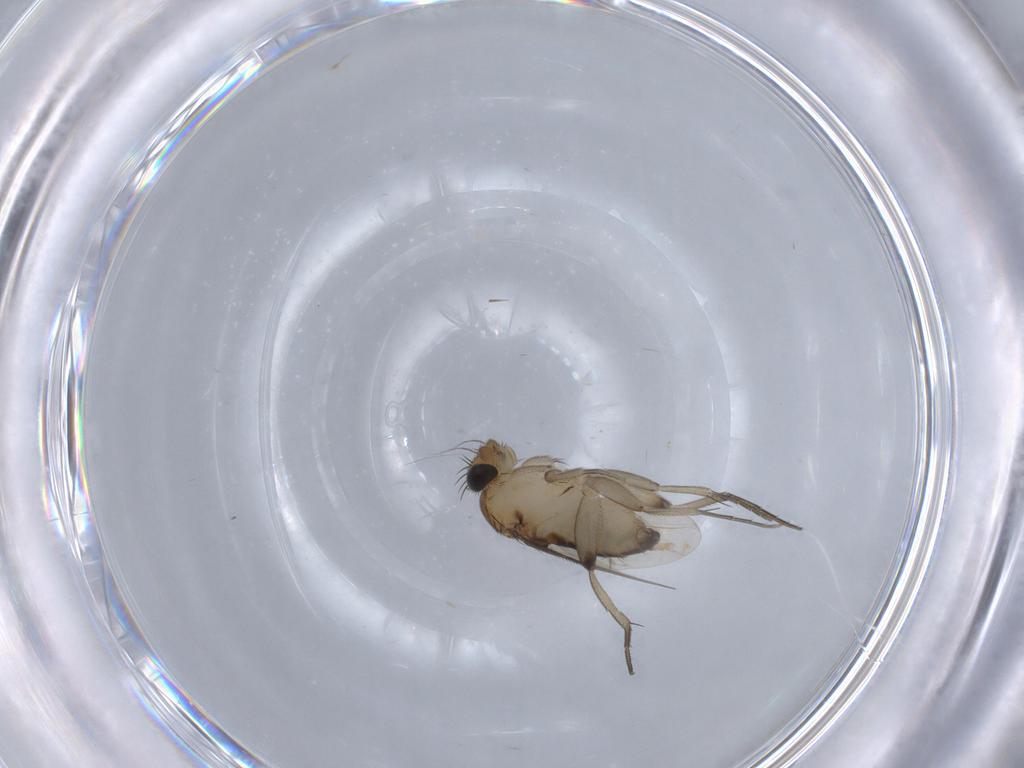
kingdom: Animalia
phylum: Arthropoda
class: Insecta
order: Diptera
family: Phoridae
